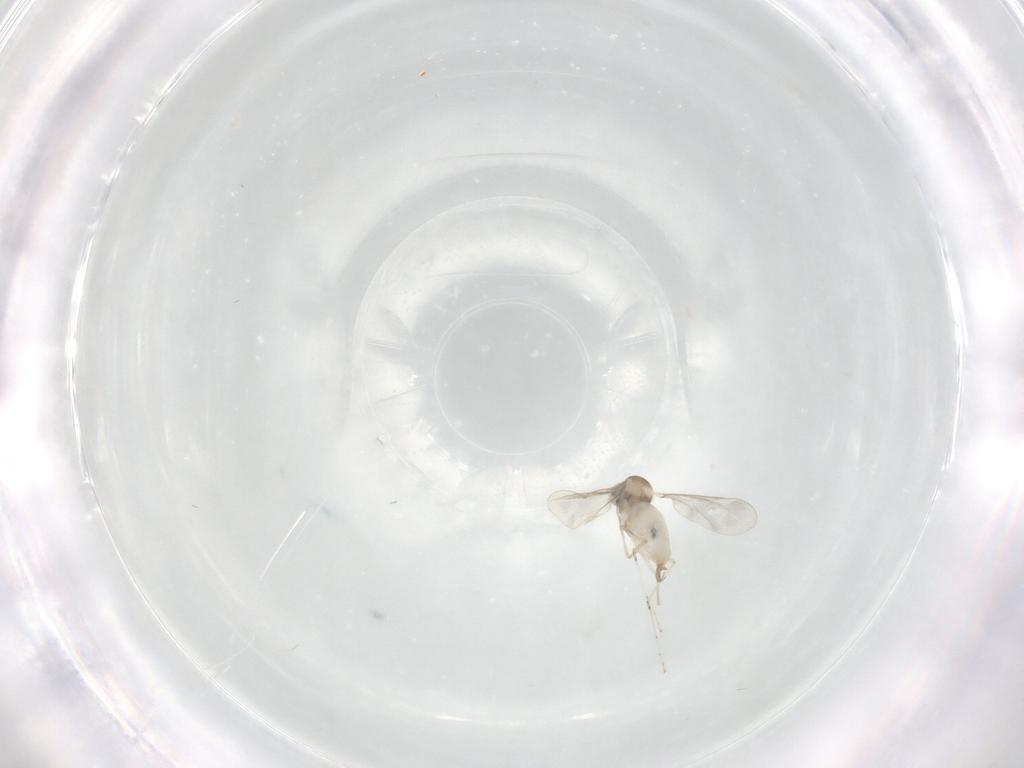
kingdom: Animalia
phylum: Arthropoda
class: Insecta
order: Diptera
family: Cecidomyiidae
